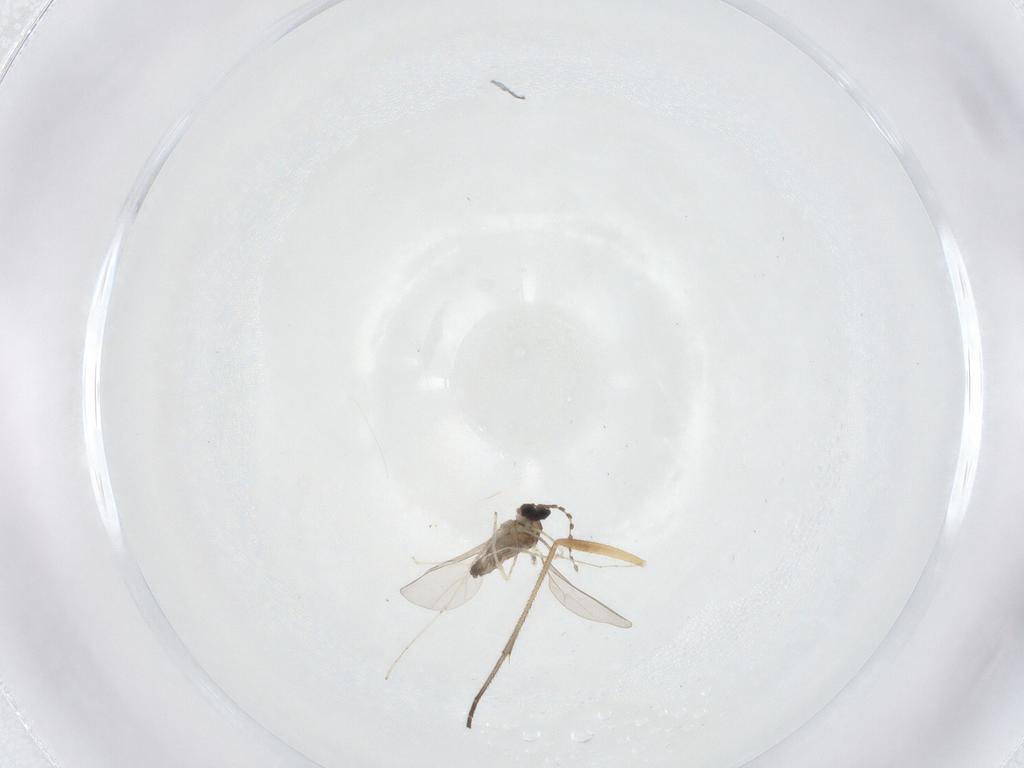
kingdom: Animalia
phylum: Arthropoda
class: Insecta
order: Diptera
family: Cecidomyiidae
